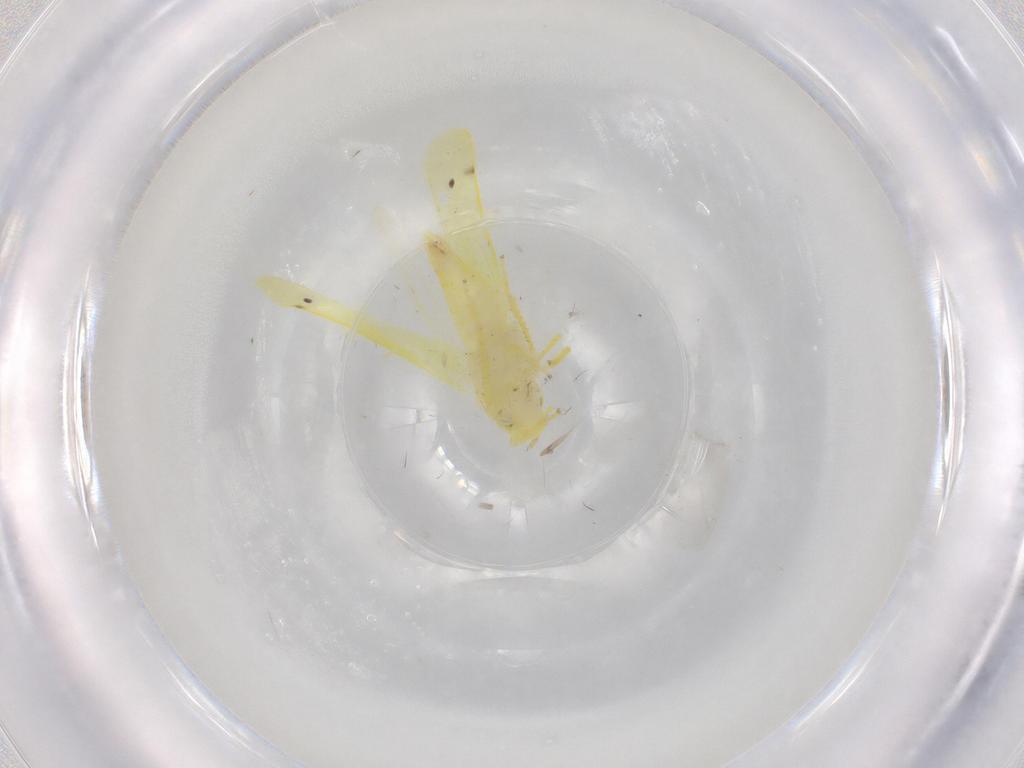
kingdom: Animalia
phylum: Arthropoda
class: Insecta
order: Hemiptera
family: Cicadellidae
